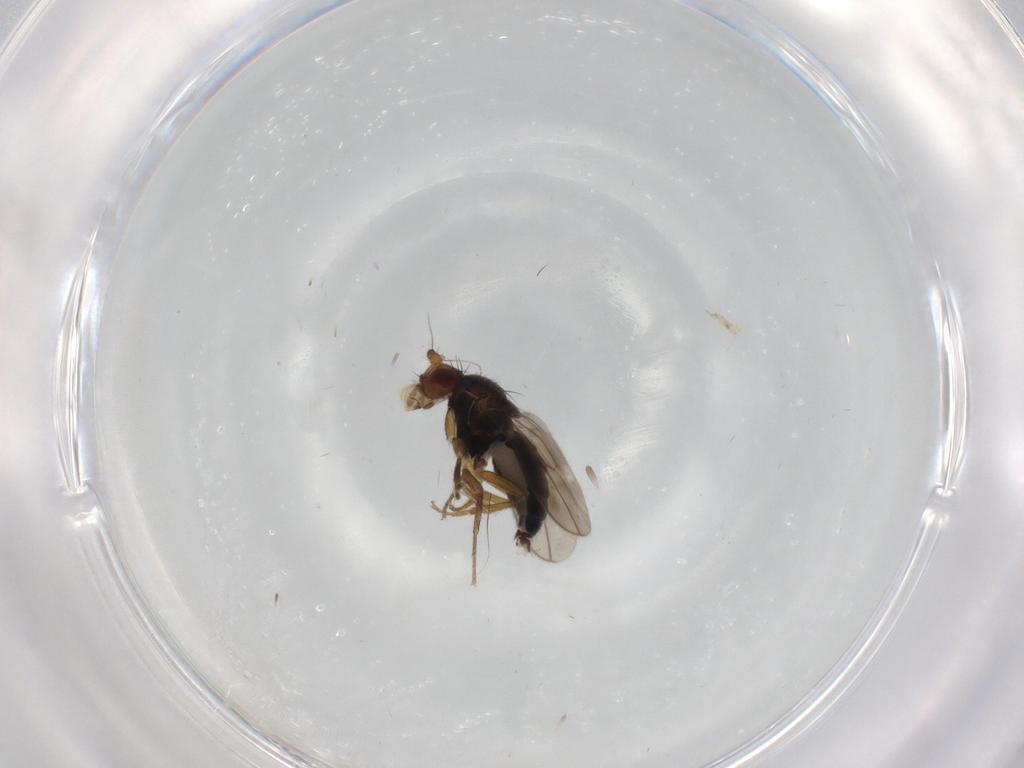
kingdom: Animalia
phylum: Arthropoda
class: Insecta
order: Diptera
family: Sphaeroceridae
